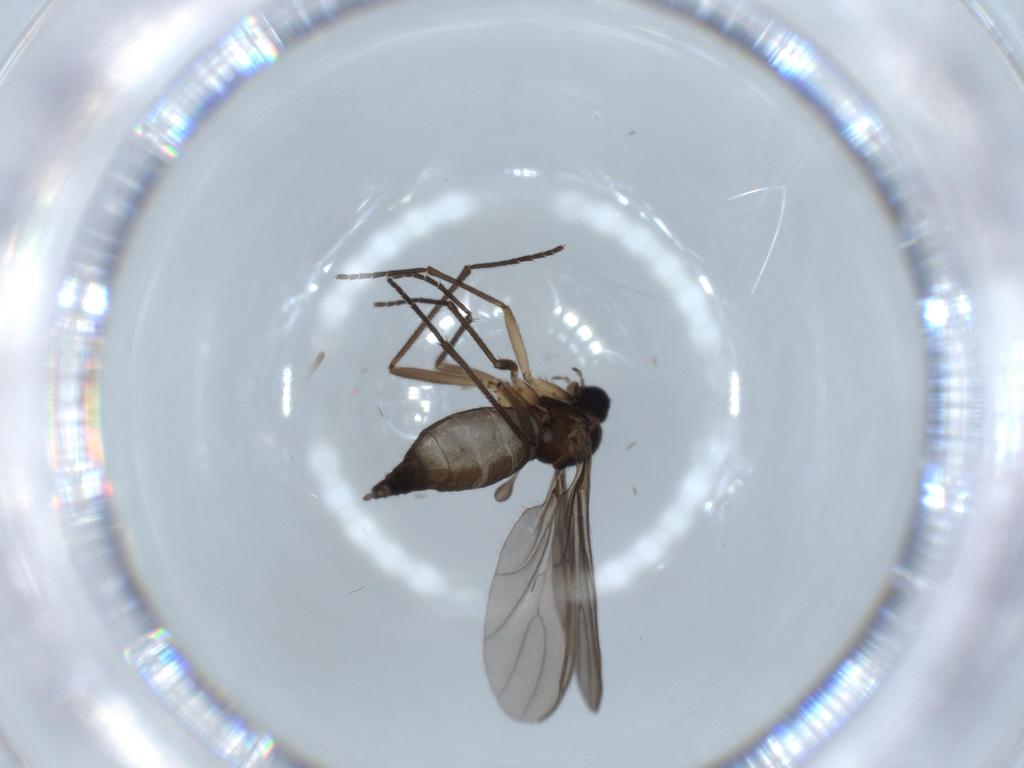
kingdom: Animalia
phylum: Arthropoda
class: Insecta
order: Diptera
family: Sciaridae
